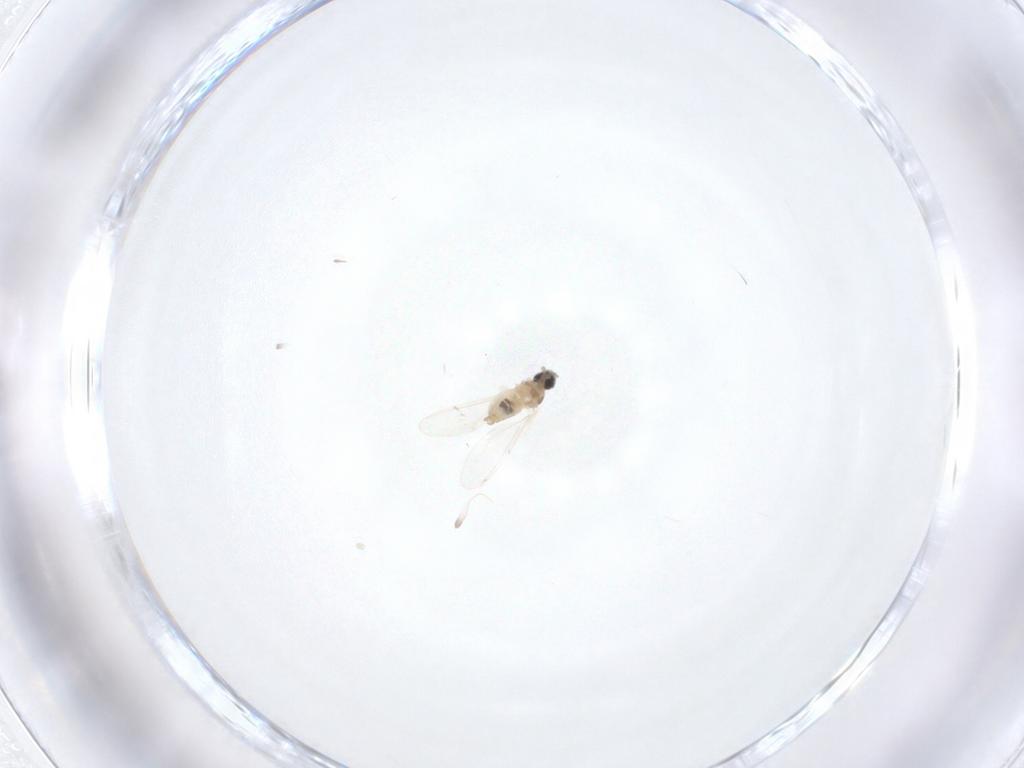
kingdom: Animalia
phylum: Arthropoda
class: Insecta
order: Diptera
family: Cecidomyiidae
